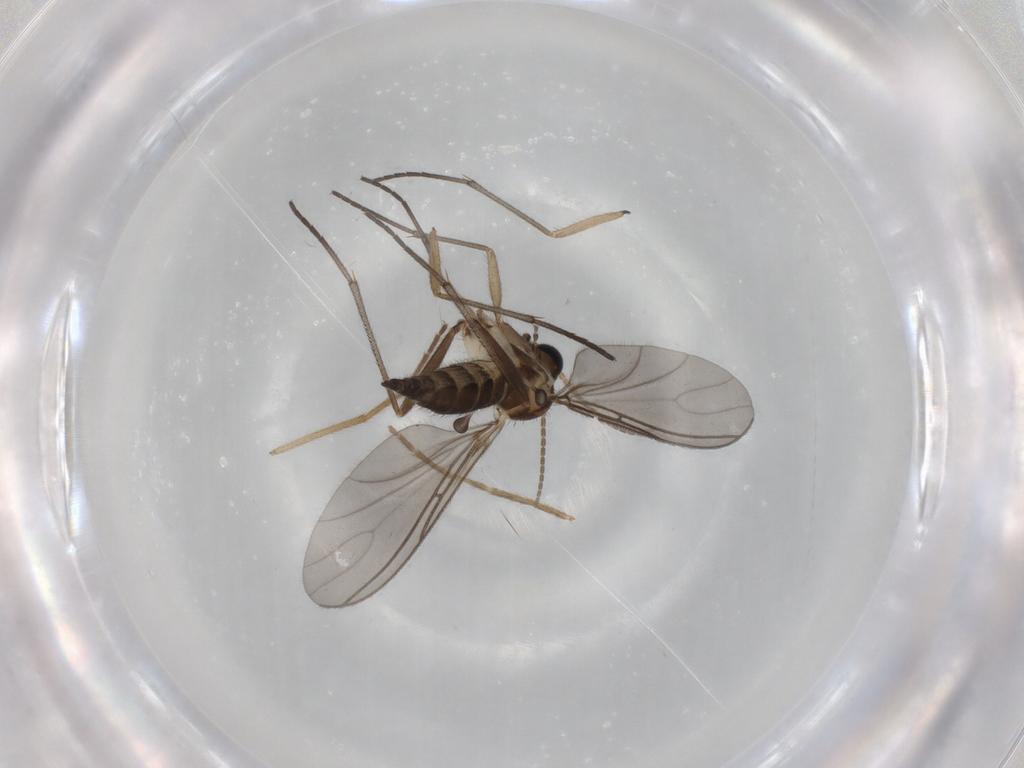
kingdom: Animalia
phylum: Arthropoda
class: Insecta
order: Diptera
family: Sciaridae
